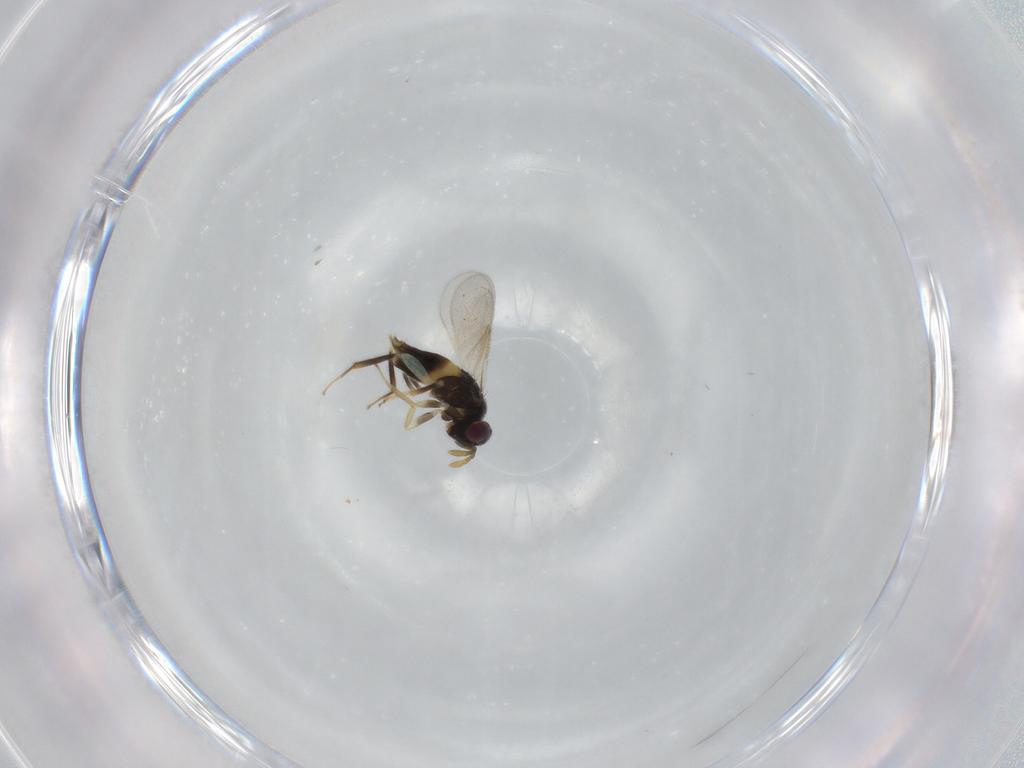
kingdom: Animalia
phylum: Arthropoda
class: Insecta
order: Hymenoptera
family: Aphelinidae
